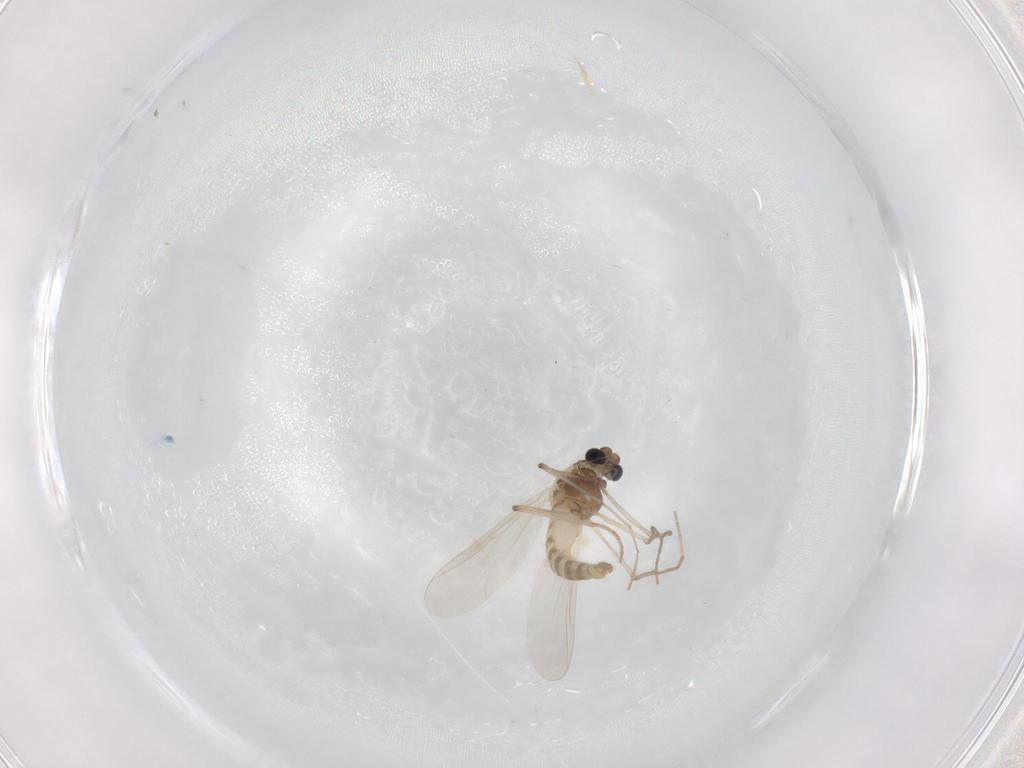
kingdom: Animalia
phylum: Arthropoda
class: Insecta
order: Diptera
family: Chironomidae
